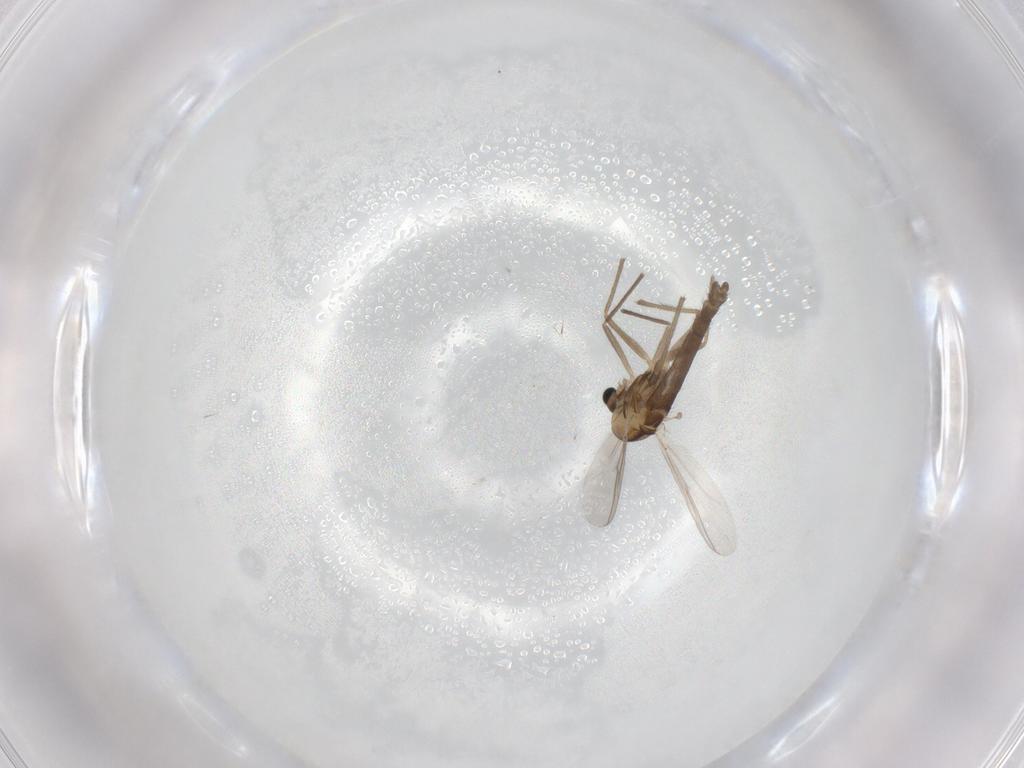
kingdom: Animalia
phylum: Arthropoda
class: Insecta
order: Diptera
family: Chironomidae
